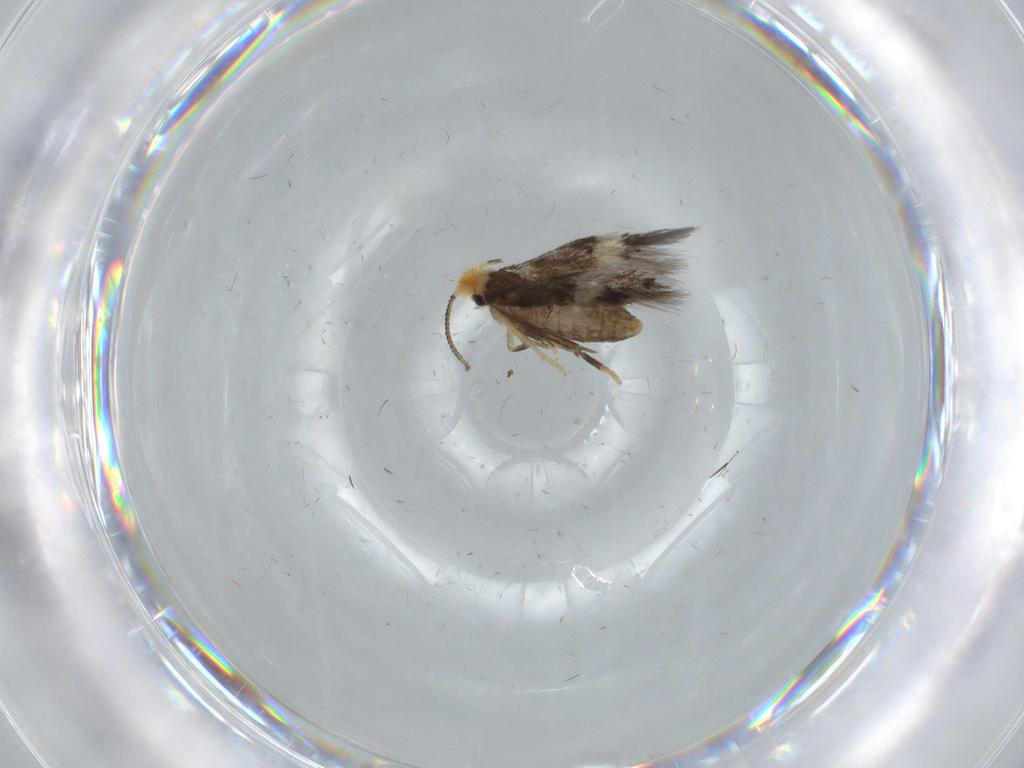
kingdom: Animalia
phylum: Arthropoda
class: Insecta
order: Lepidoptera
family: Nepticulidae
